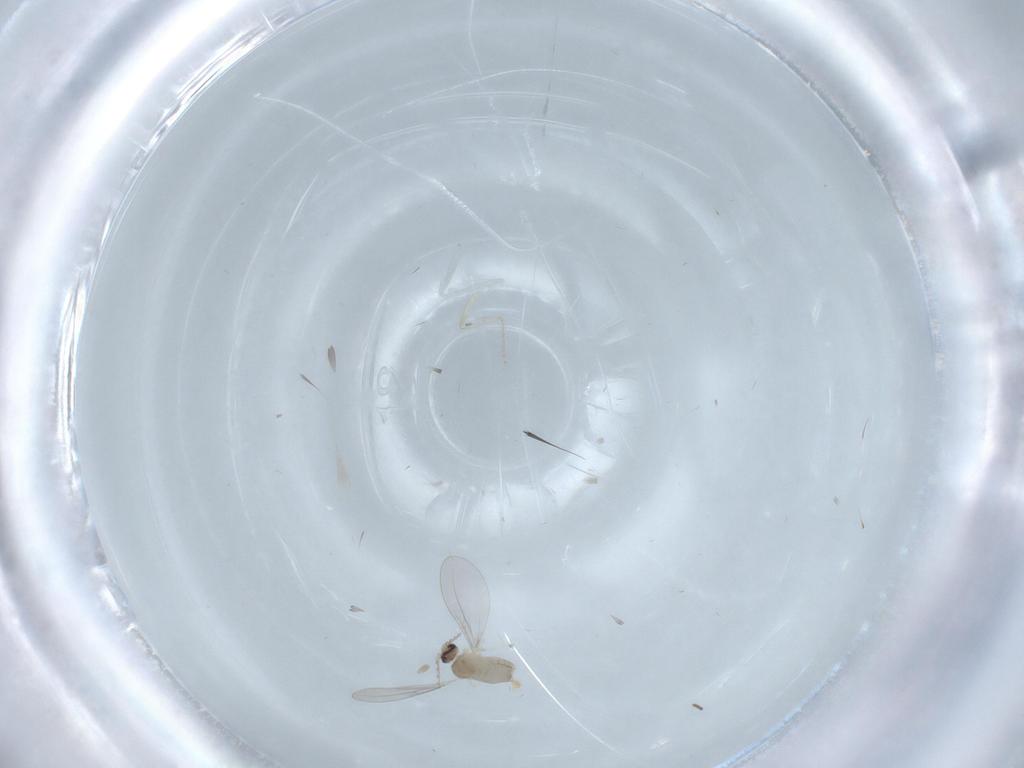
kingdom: Animalia
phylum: Arthropoda
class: Insecta
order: Diptera
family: Cecidomyiidae
